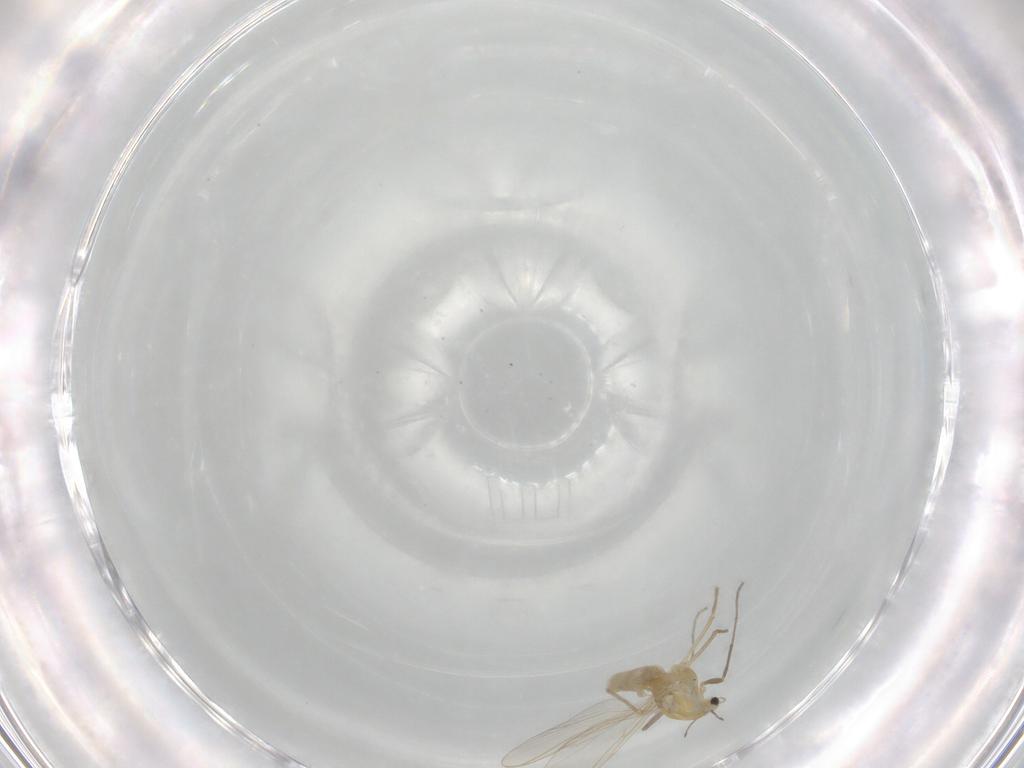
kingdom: Animalia
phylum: Arthropoda
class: Insecta
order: Diptera
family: Chironomidae
